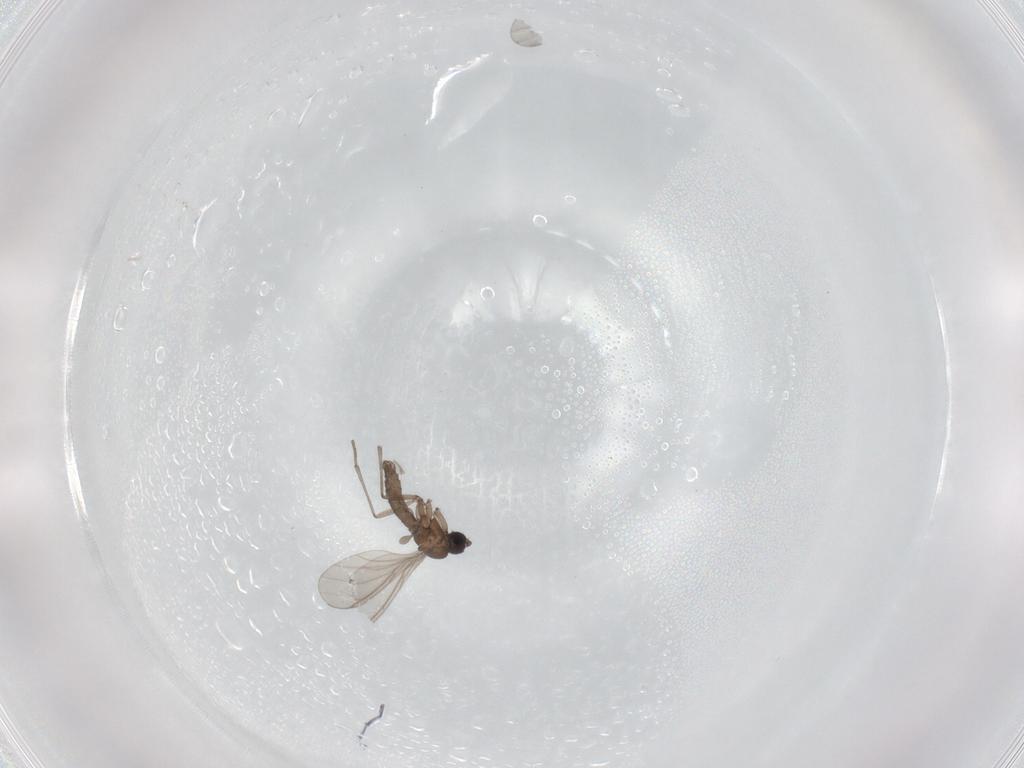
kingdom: Animalia
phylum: Arthropoda
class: Insecta
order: Diptera
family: Sciaridae
